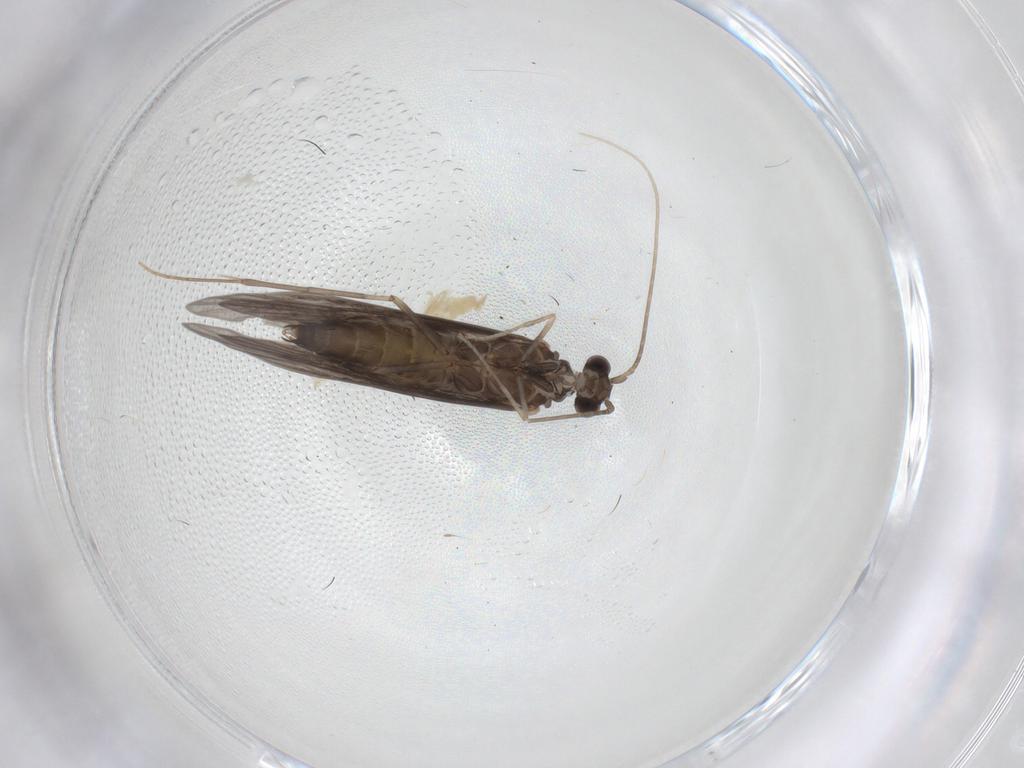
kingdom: Animalia
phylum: Arthropoda
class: Insecta
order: Trichoptera
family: Xiphocentronidae
